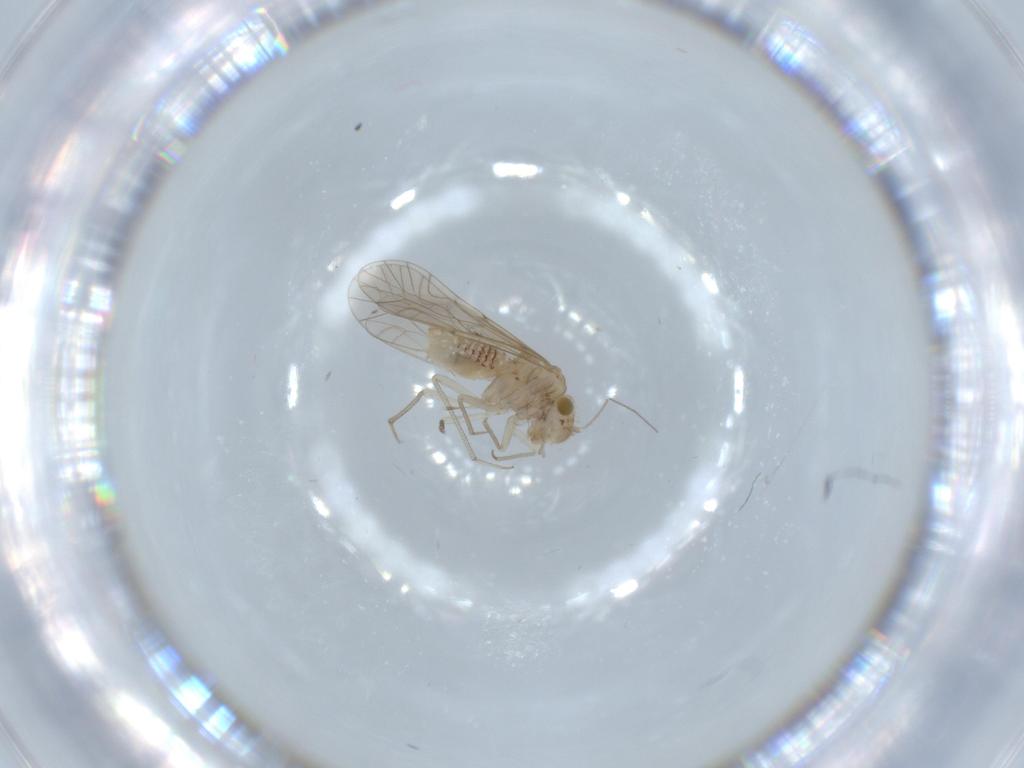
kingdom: Animalia
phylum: Arthropoda
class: Insecta
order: Psocodea
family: Lachesillidae
